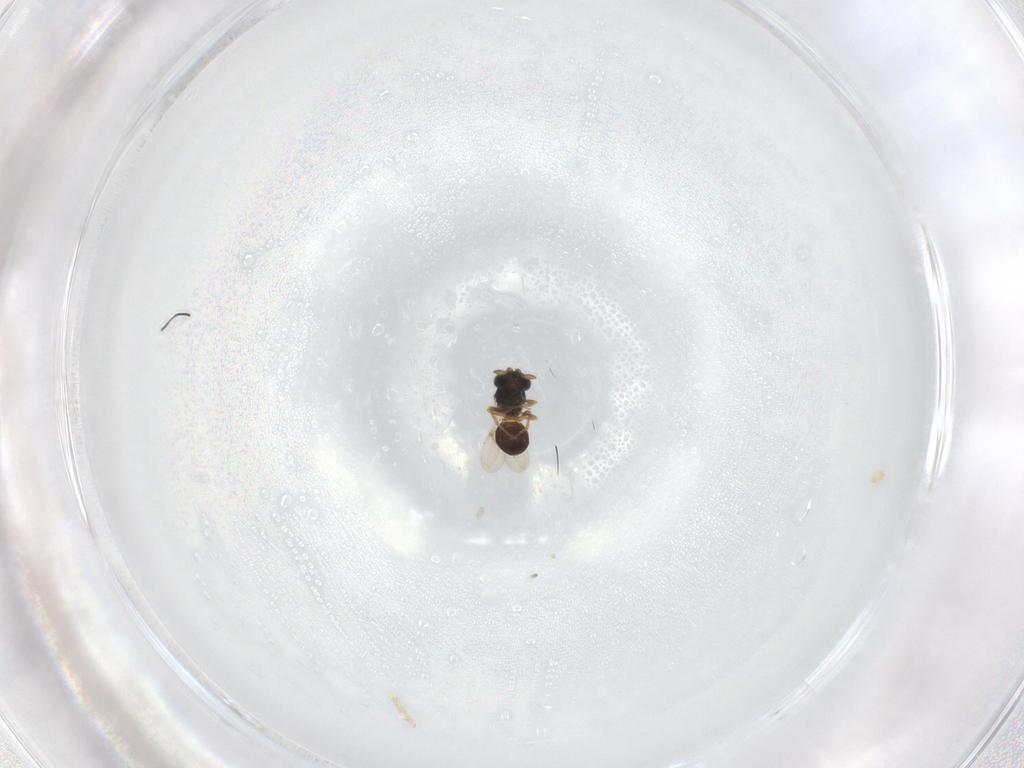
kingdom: Animalia
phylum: Arthropoda
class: Insecta
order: Hymenoptera
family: Scelionidae
